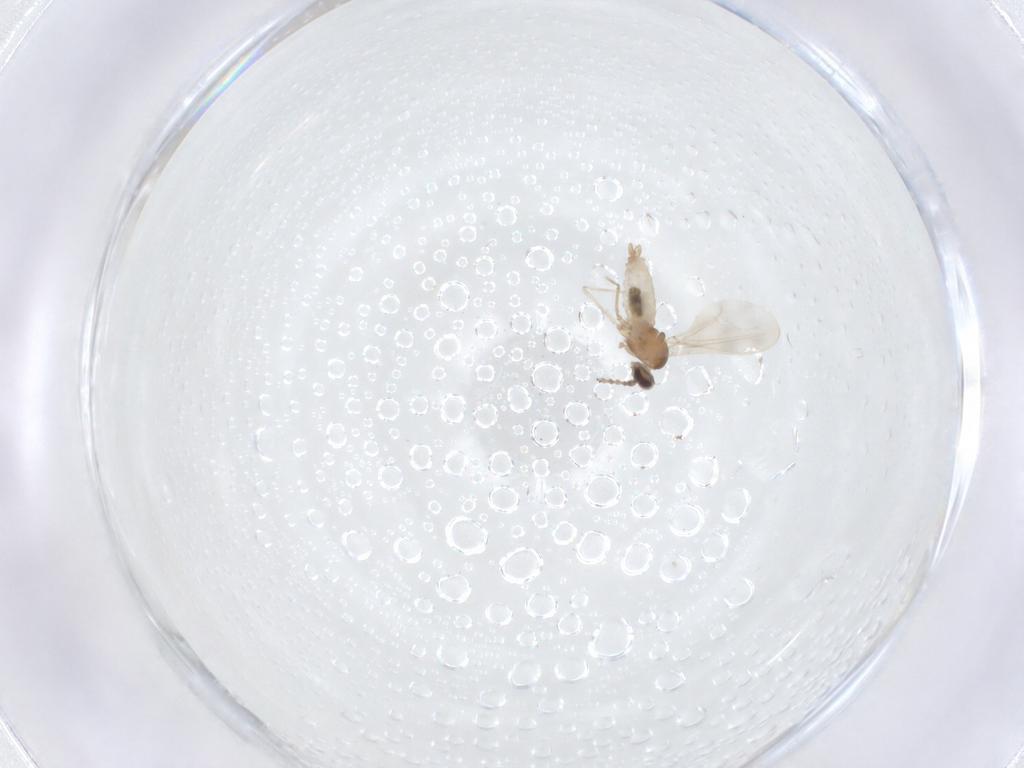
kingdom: Animalia
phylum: Arthropoda
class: Insecta
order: Diptera
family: Cecidomyiidae
